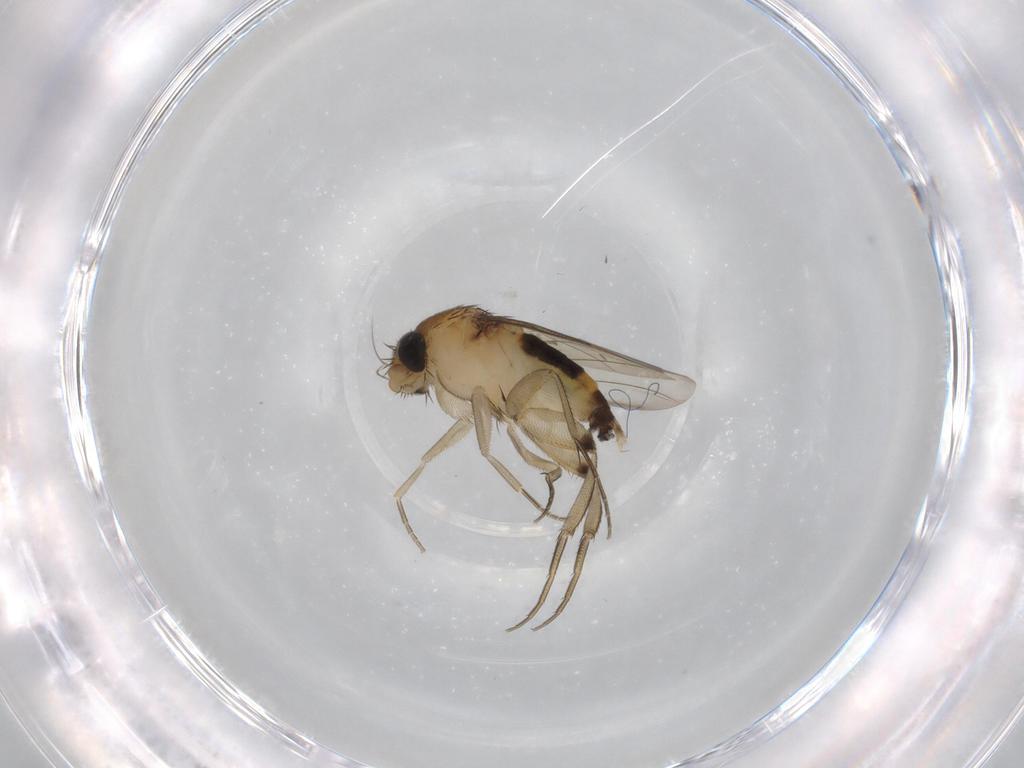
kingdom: Animalia
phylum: Arthropoda
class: Insecta
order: Diptera
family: Phoridae
